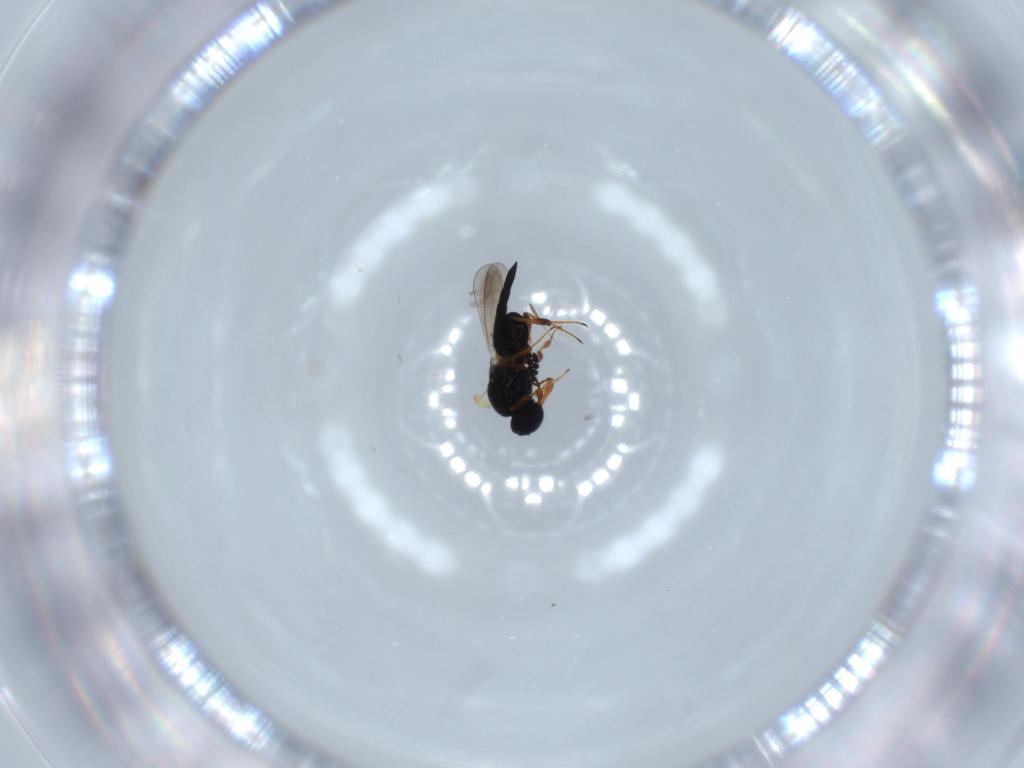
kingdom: Animalia
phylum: Arthropoda
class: Insecta
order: Hymenoptera
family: Platygastridae
